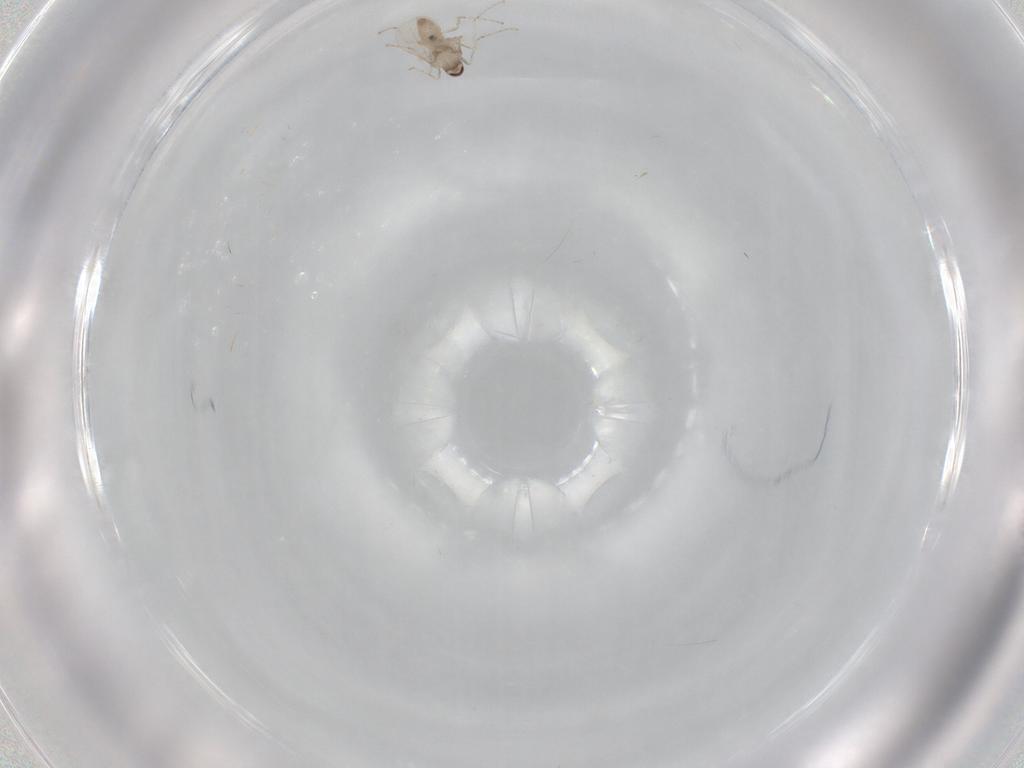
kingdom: Animalia
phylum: Arthropoda
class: Insecta
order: Diptera
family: Cecidomyiidae
